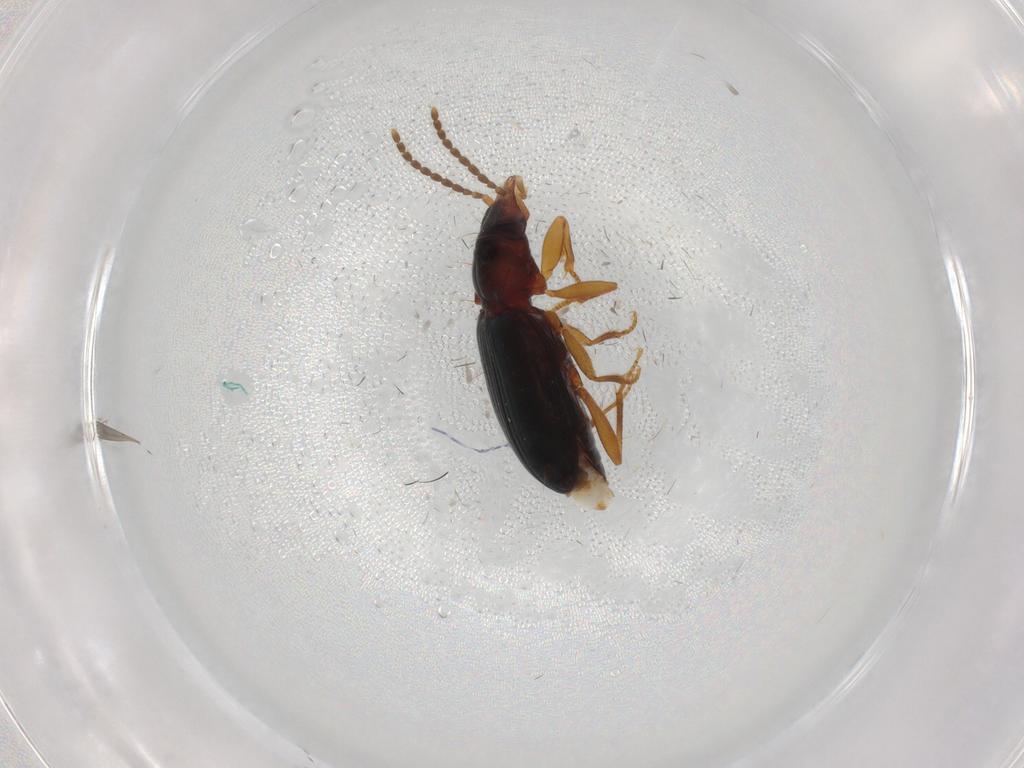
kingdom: Animalia
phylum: Arthropoda
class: Insecta
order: Coleoptera
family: Carabidae
